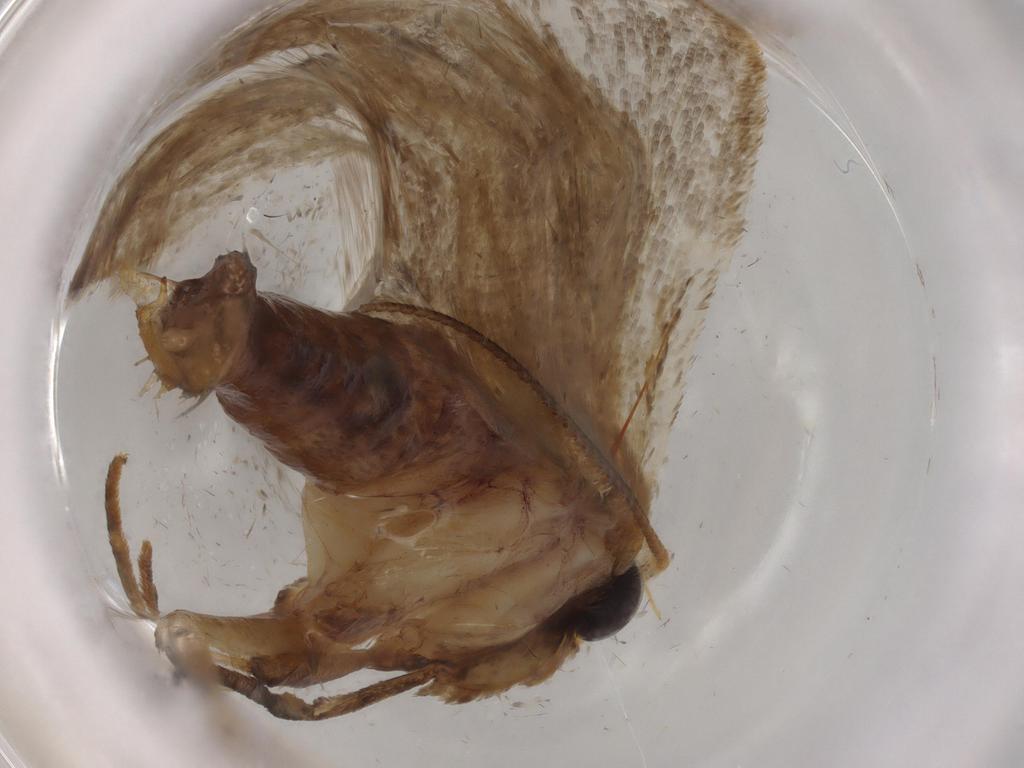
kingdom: Animalia
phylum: Arthropoda
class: Insecta
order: Lepidoptera
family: Oecophoridae
